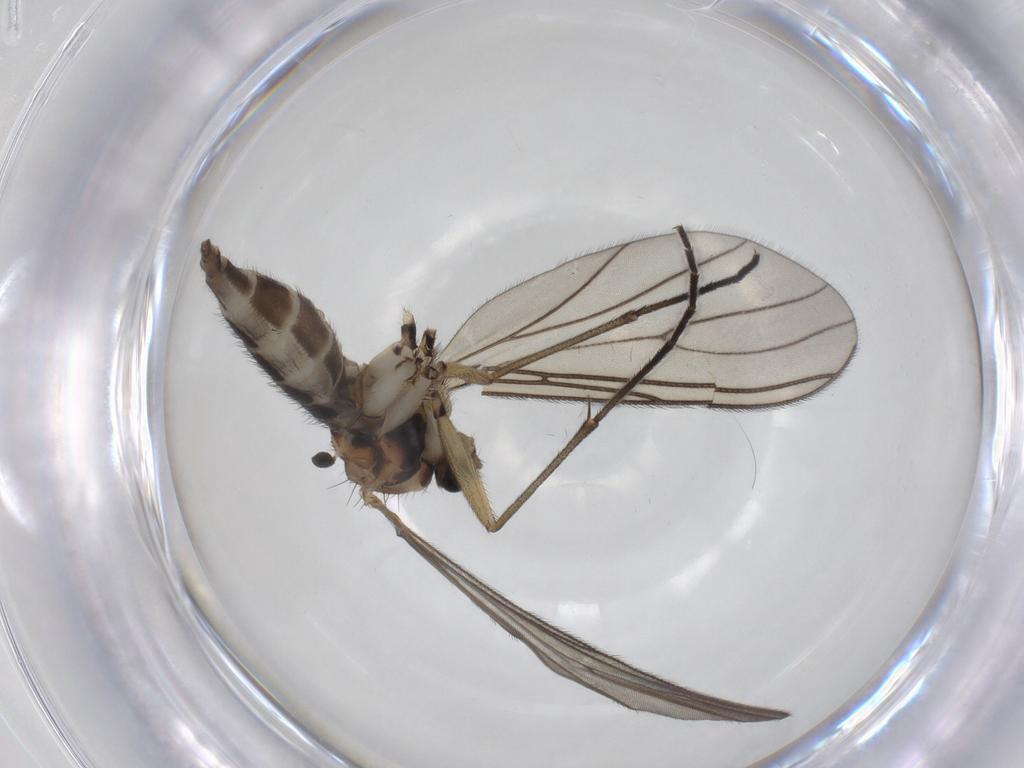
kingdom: Animalia
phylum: Arthropoda
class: Insecta
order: Diptera
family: Sciaridae
